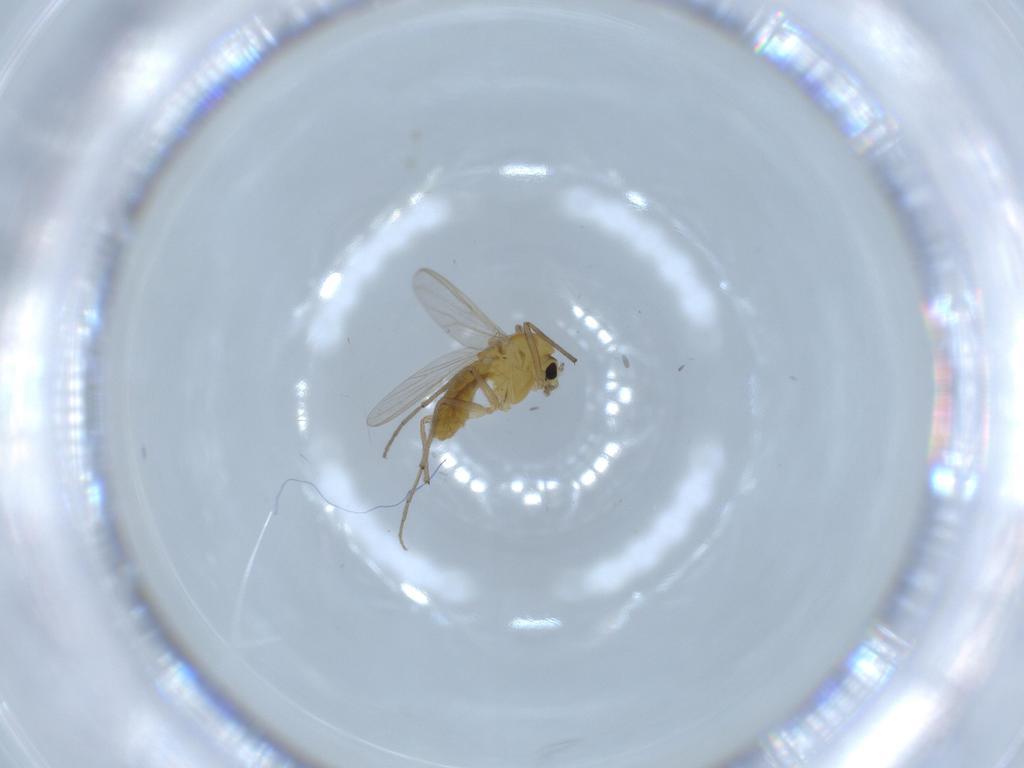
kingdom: Animalia
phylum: Arthropoda
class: Insecta
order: Diptera
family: Chironomidae
